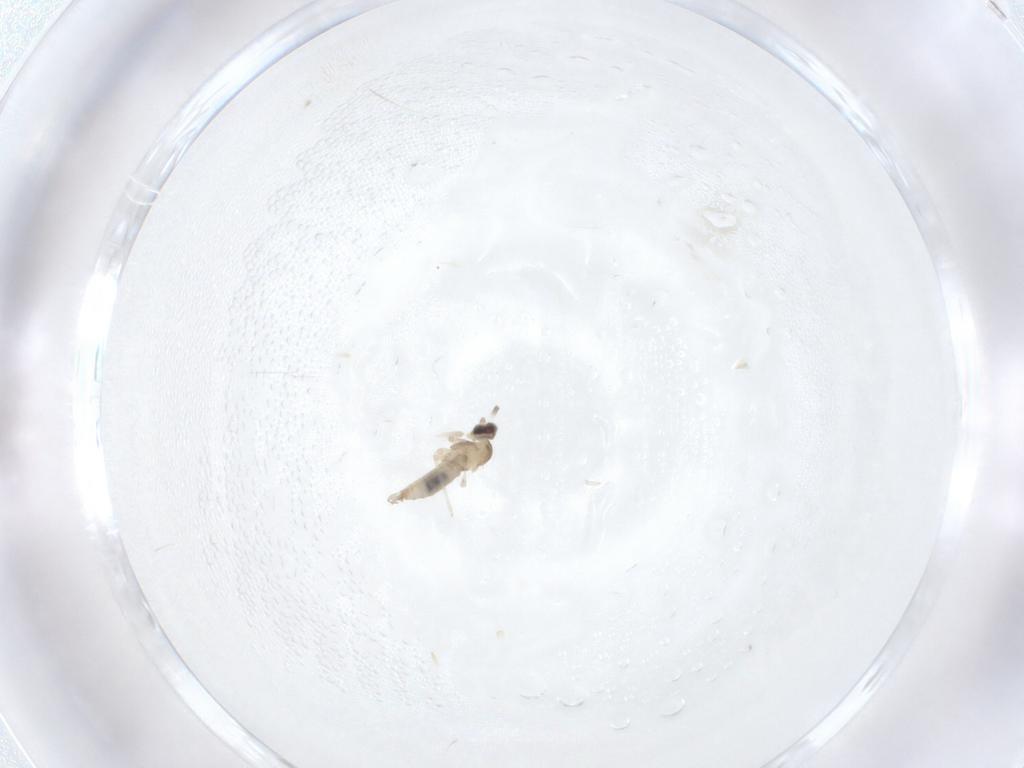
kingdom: Animalia
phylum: Arthropoda
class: Insecta
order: Diptera
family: Cecidomyiidae
